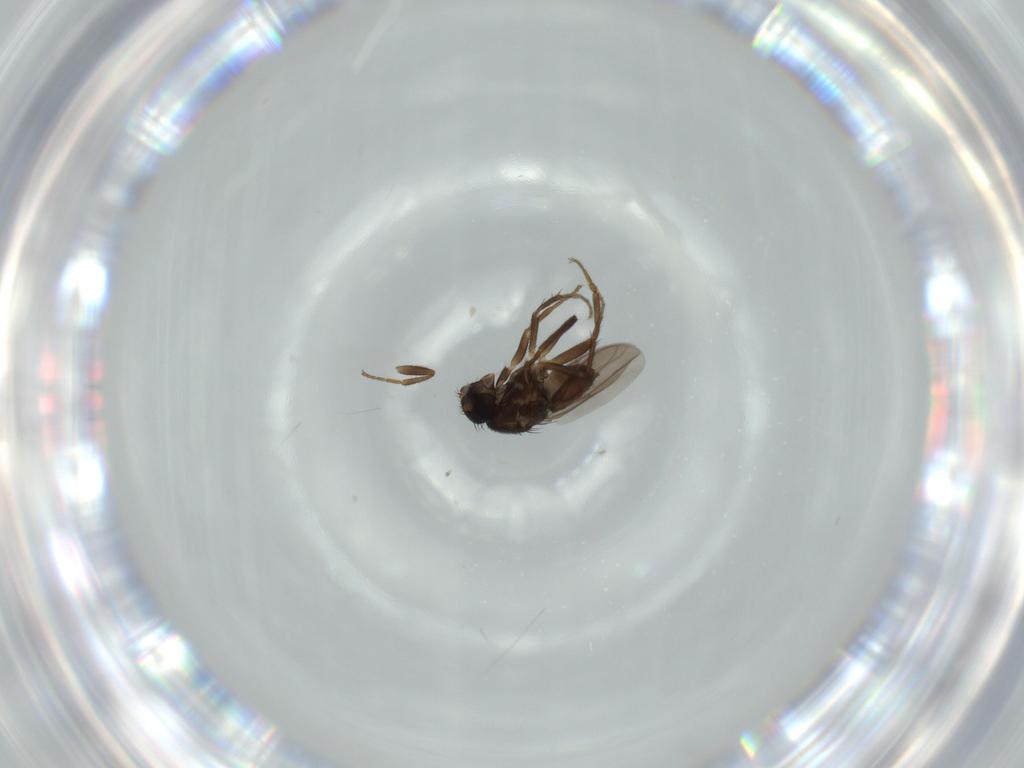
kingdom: Animalia
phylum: Arthropoda
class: Insecta
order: Diptera
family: Sphaeroceridae
